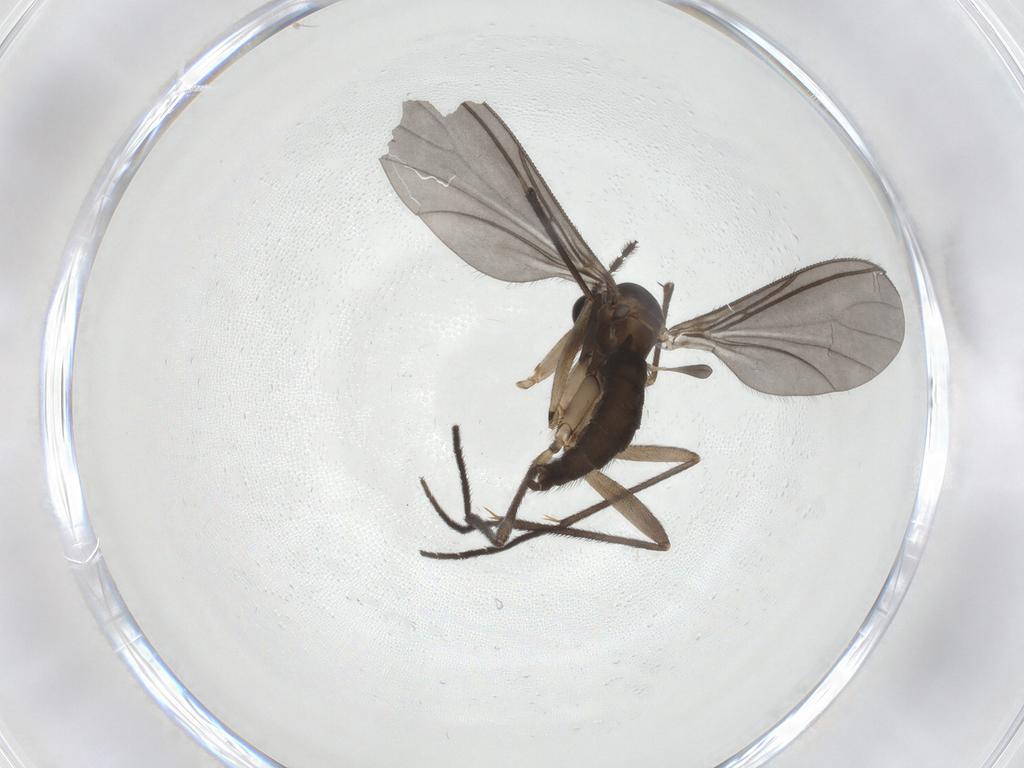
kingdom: Animalia
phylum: Arthropoda
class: Insecta
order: Diptera
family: Sciaridae
